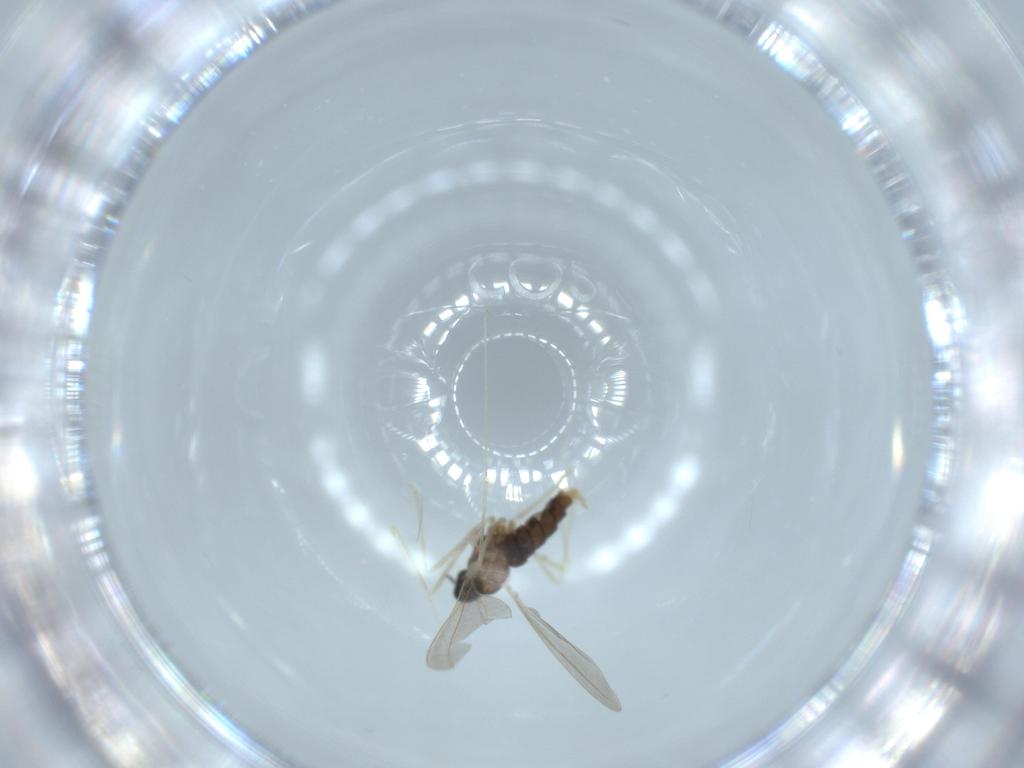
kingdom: Animalia
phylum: Arthropoda
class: Insecta
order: Diptera
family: Cecidomyiidae
